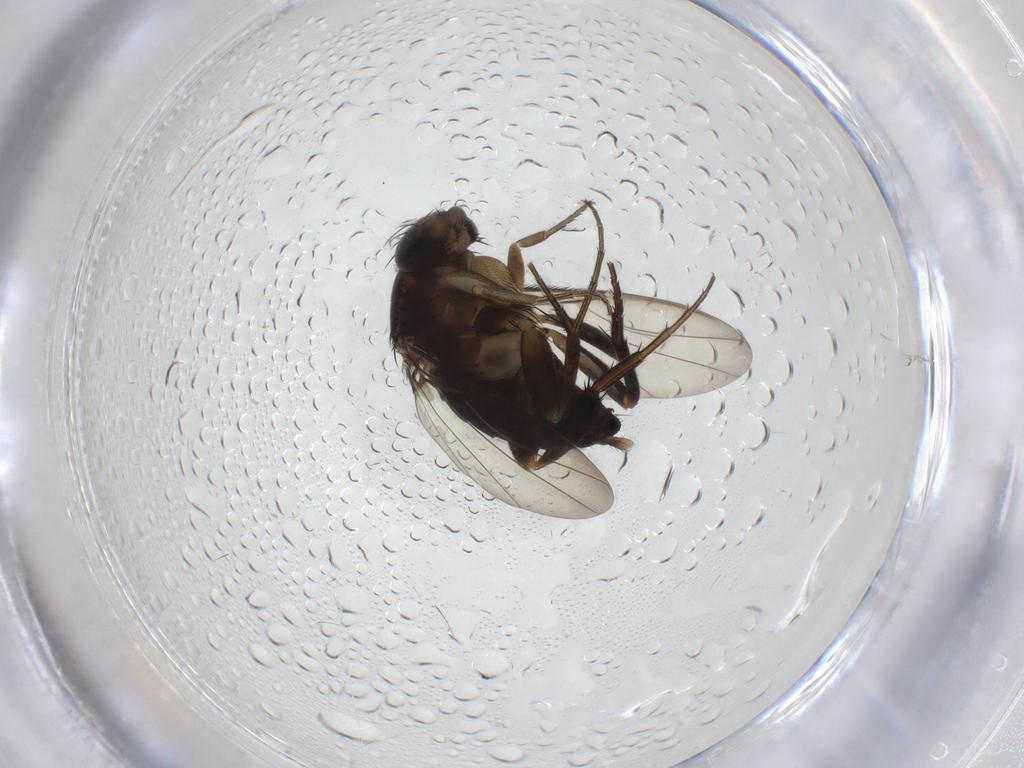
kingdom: Animalia
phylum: Arthropoda
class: Insecta
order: Diptera
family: Phoridae
